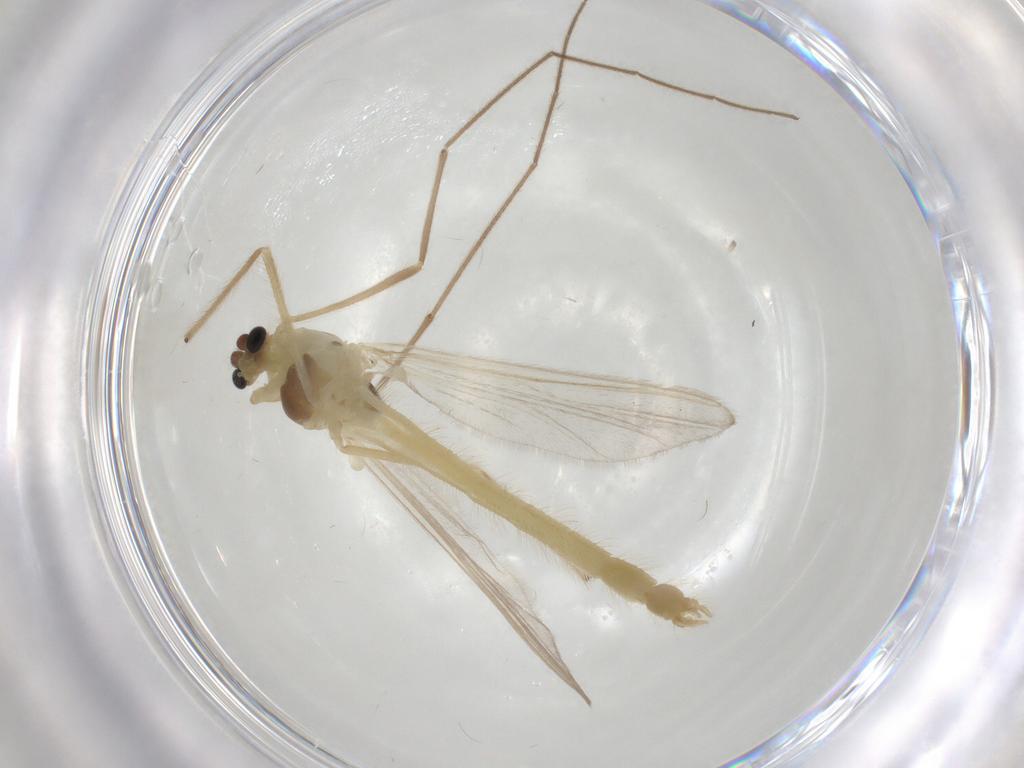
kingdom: Animalia
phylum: Arthropoda
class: Insecta
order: Diptera
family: Chironomidae
